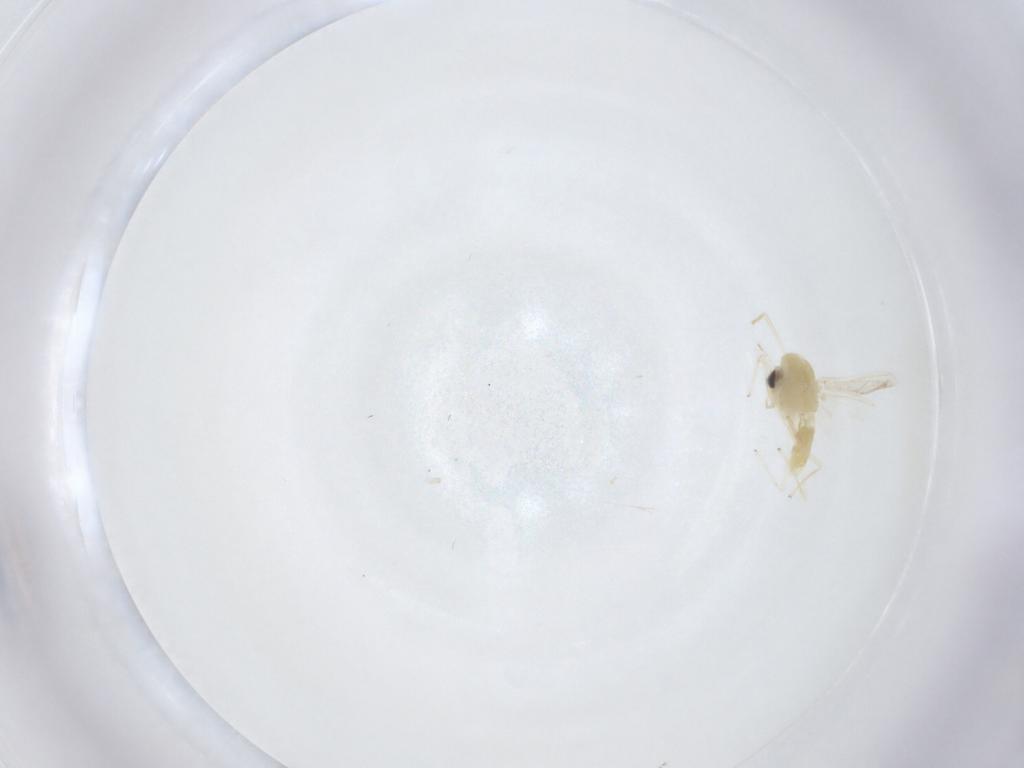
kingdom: Animalia
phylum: Arthropoda
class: Insecta
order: Diptera
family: Chironomidae
